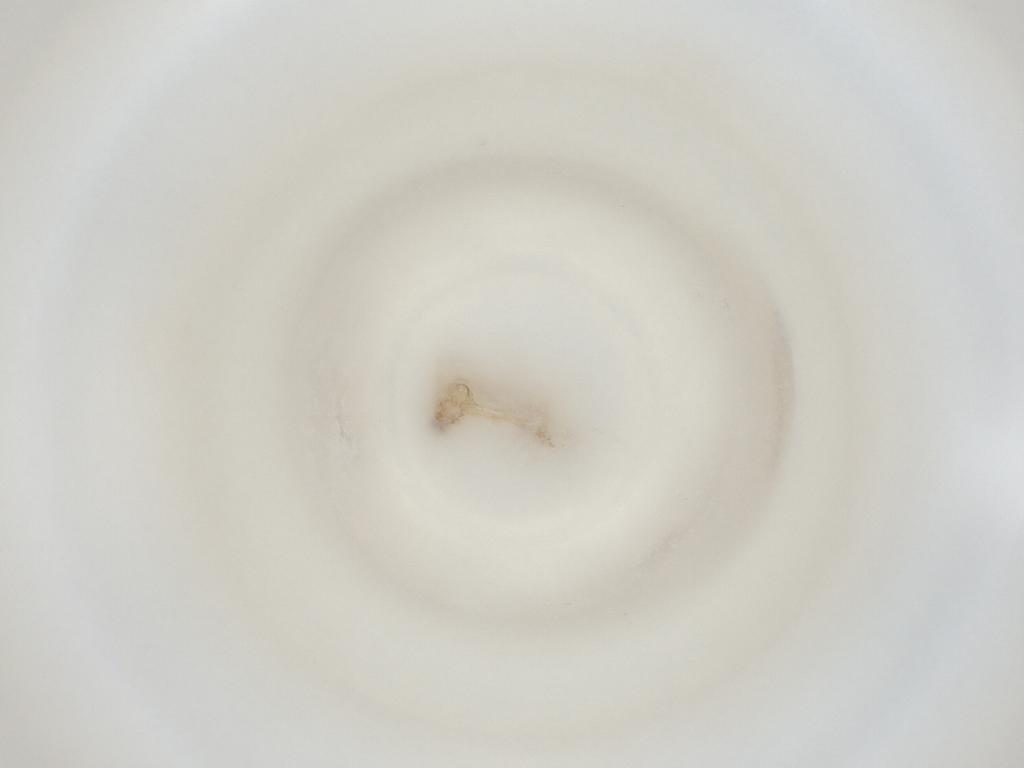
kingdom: Animalia
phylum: Arthropoda
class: Insecta
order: Diptera
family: Cecidomyiidae
